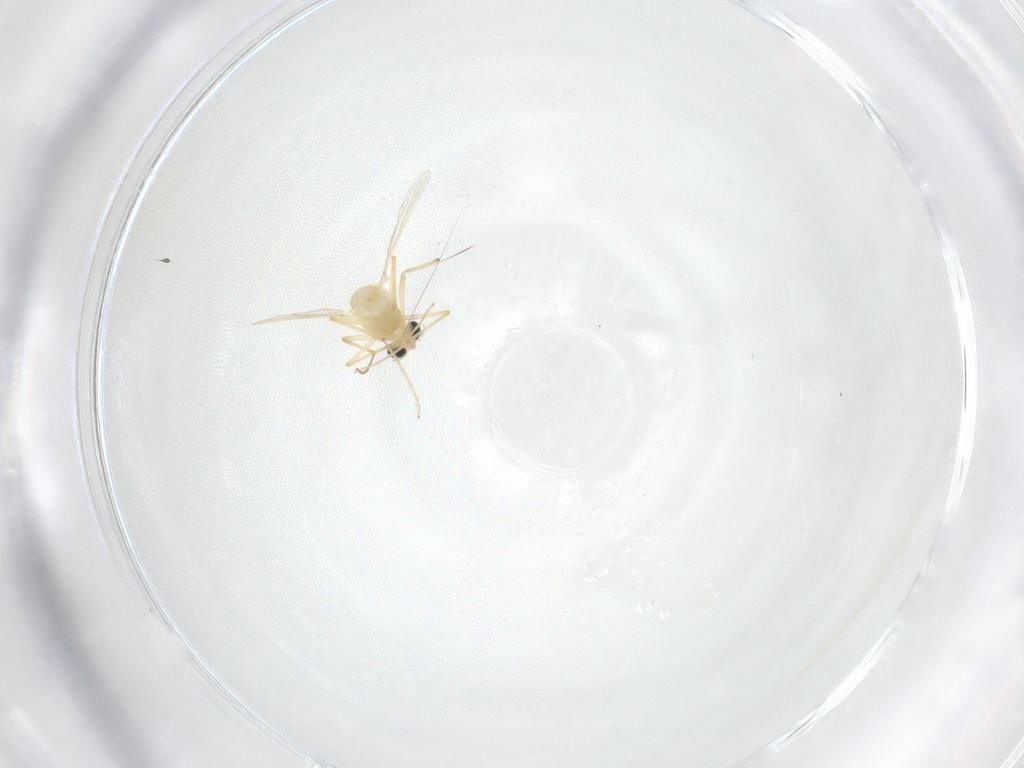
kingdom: Animalia
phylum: Arthropoda
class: Insecta
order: Diptera
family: Chironomidae
